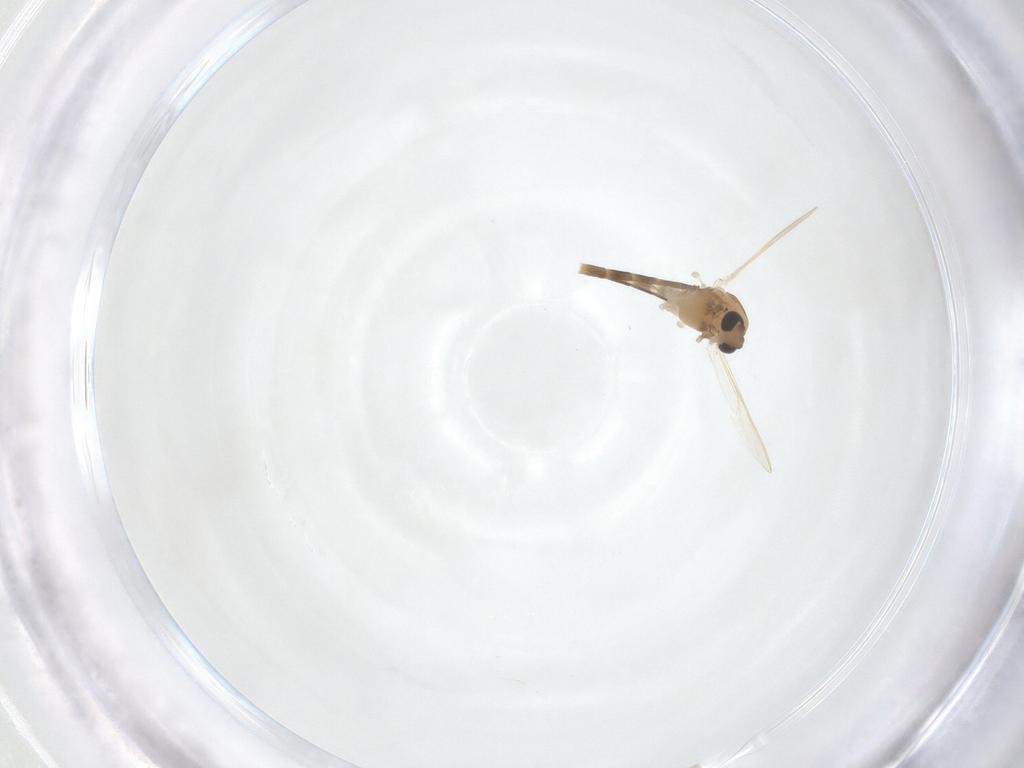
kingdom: Animalia
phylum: Arthropoda
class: Insecta
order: Diptera
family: Chironomidae
